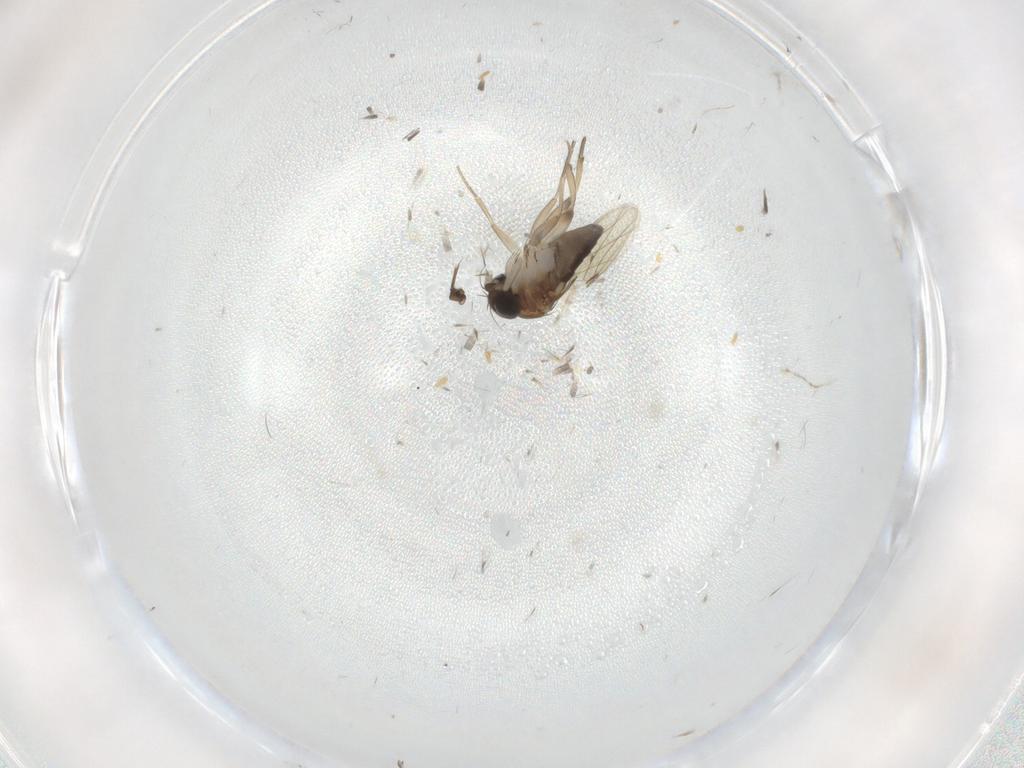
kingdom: Animalia
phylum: Arthropoda
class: Insecta
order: Diptera
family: Phoridae
